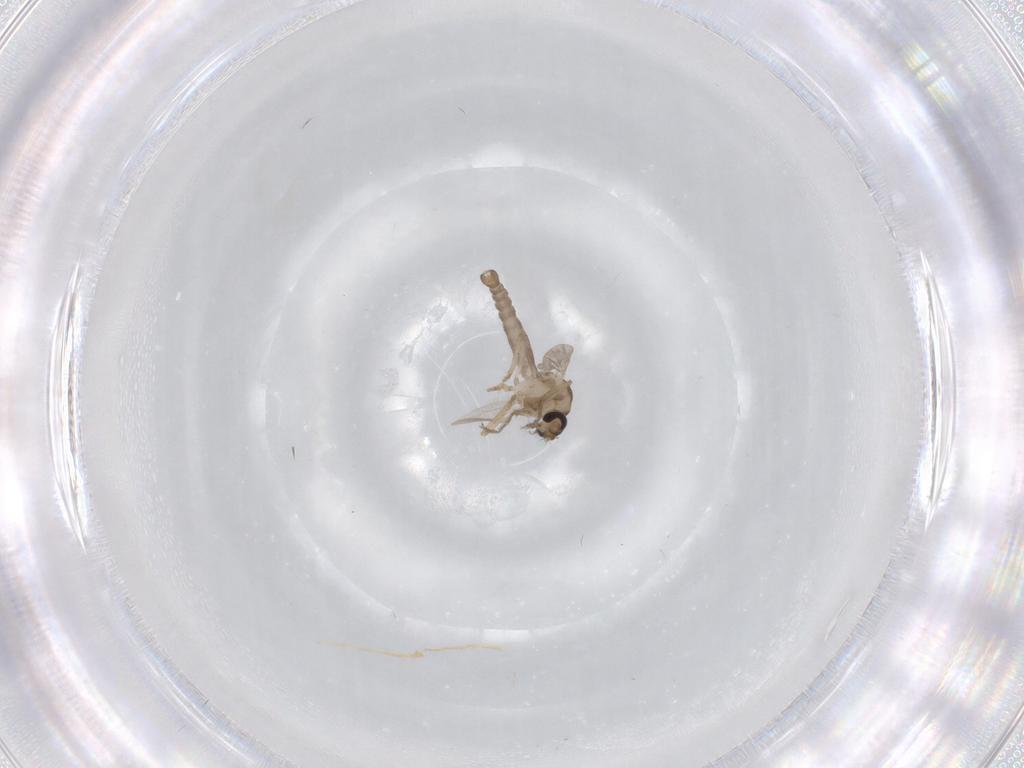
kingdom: Animalia
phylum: Arthropoda
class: Insecta
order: Diptera
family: Ceratopogonidae
